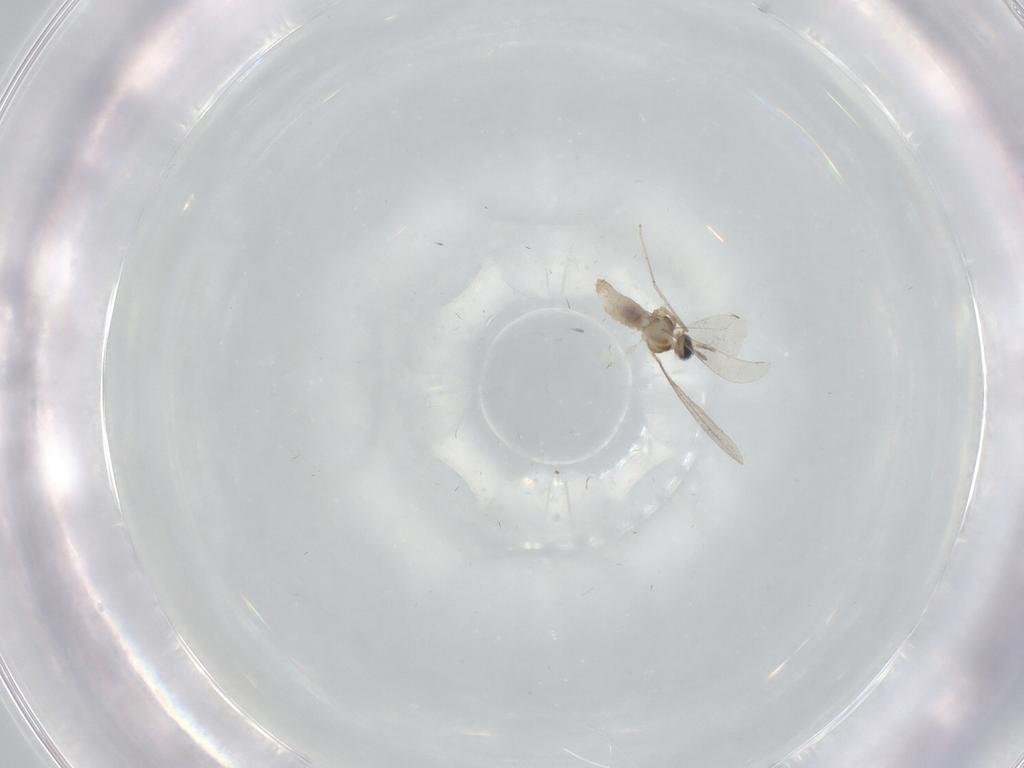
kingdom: Animalia
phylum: Arthropoda
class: Insecta
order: Diptera
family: Mycetophilidae
